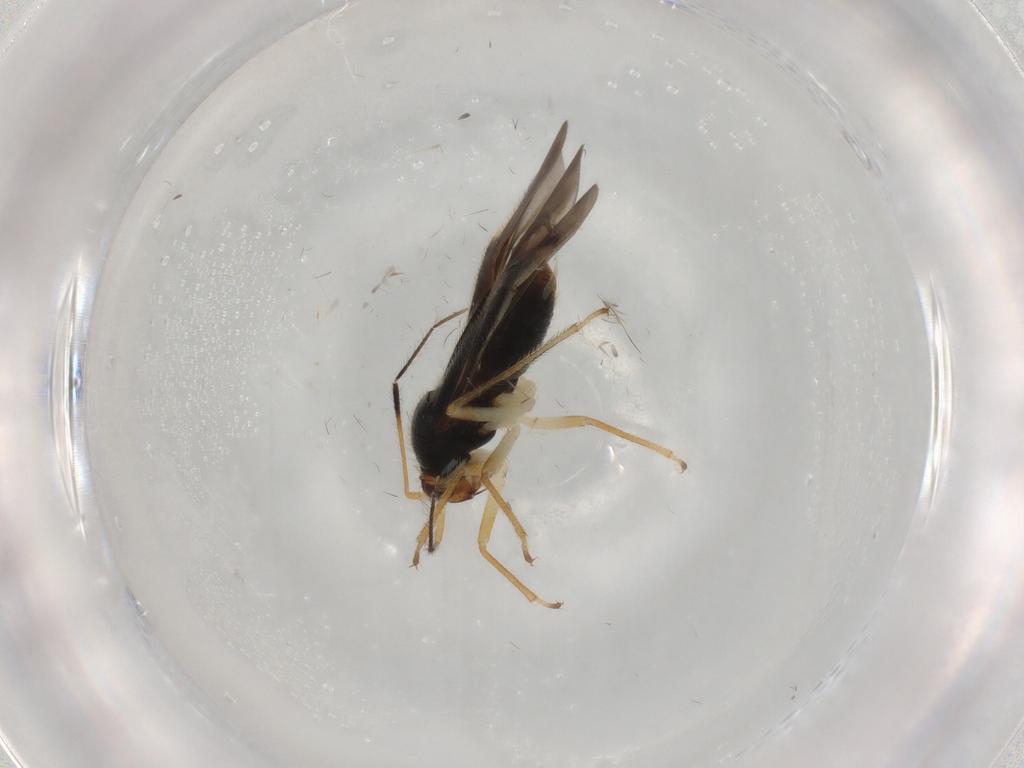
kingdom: Animalia
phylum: Arthropoda
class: Insecta
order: Hemiptera
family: Miridae
